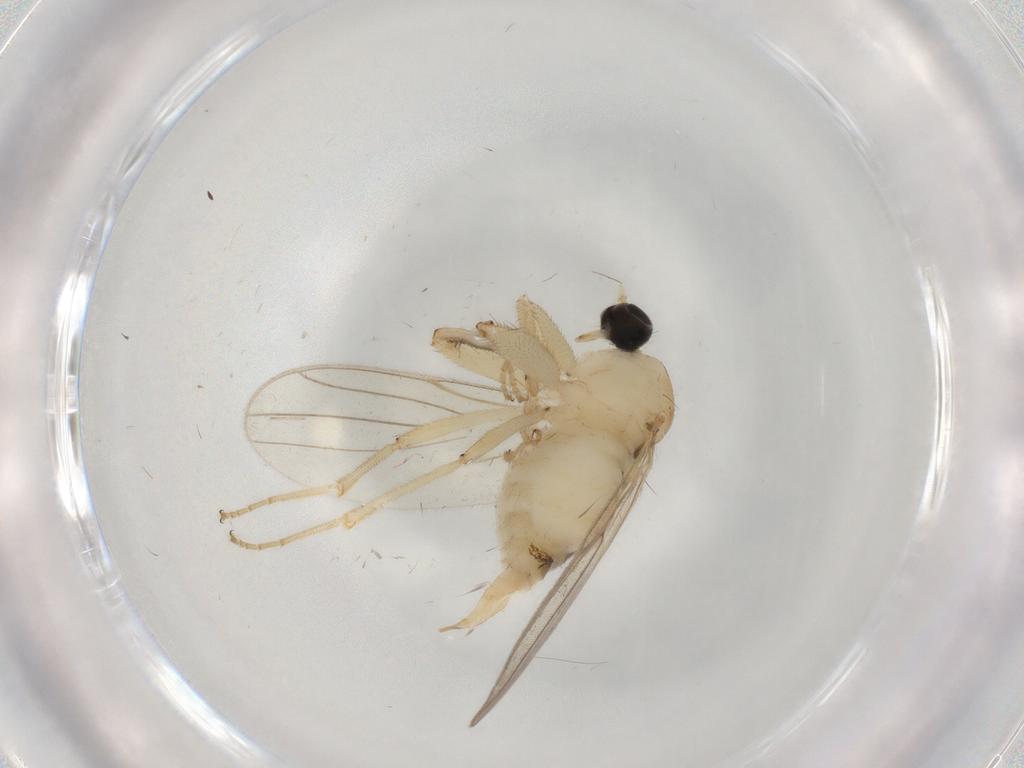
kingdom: Animalia
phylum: Arthropoda
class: Insecta
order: Diptera
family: Hybotidae
